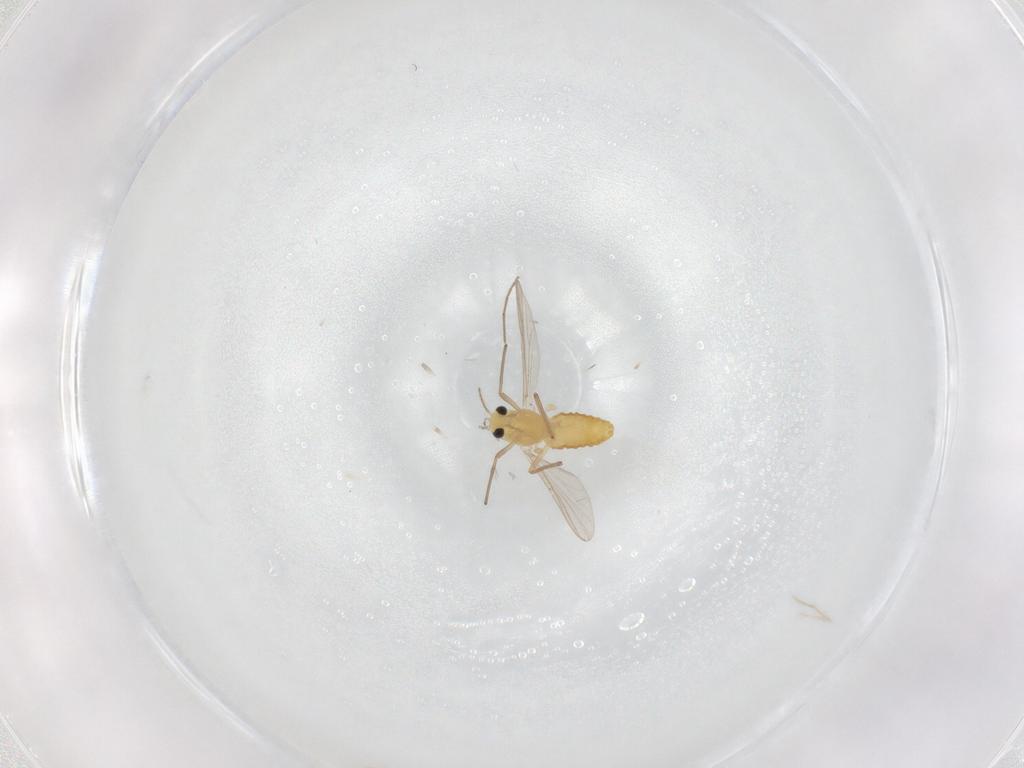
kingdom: Animalia
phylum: Arthropoda
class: Insecta
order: Diptera
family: Chironomidae
